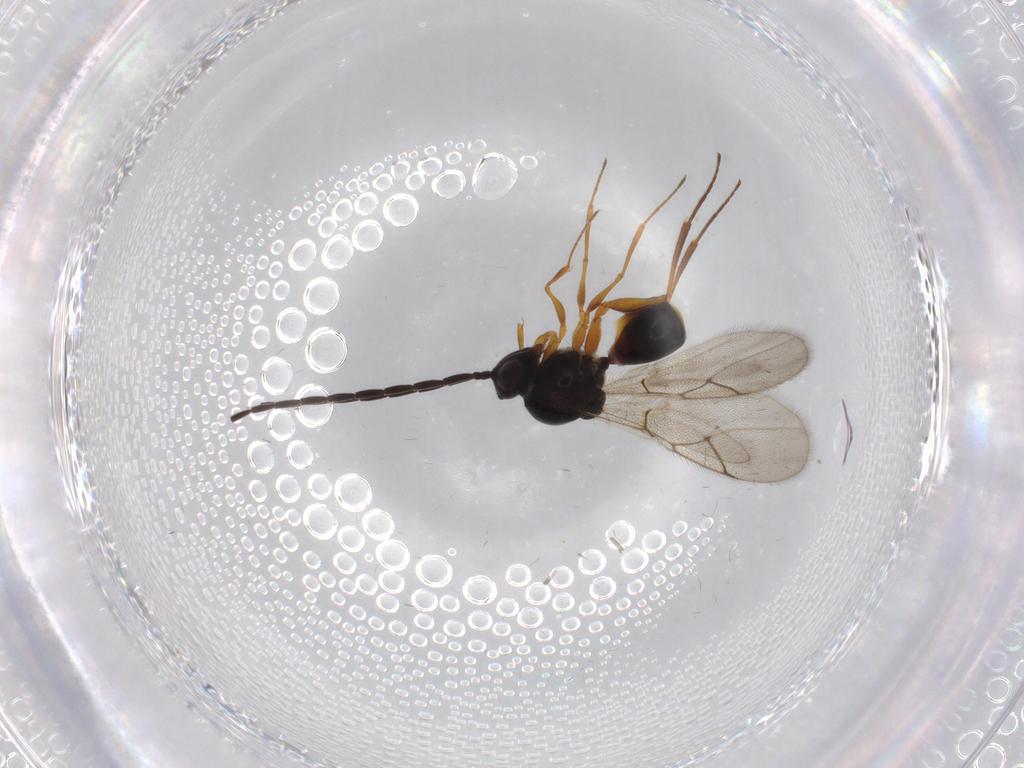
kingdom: Animalia
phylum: Arthropoda
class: Insecta
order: Hymenoptera
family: Figitidae
